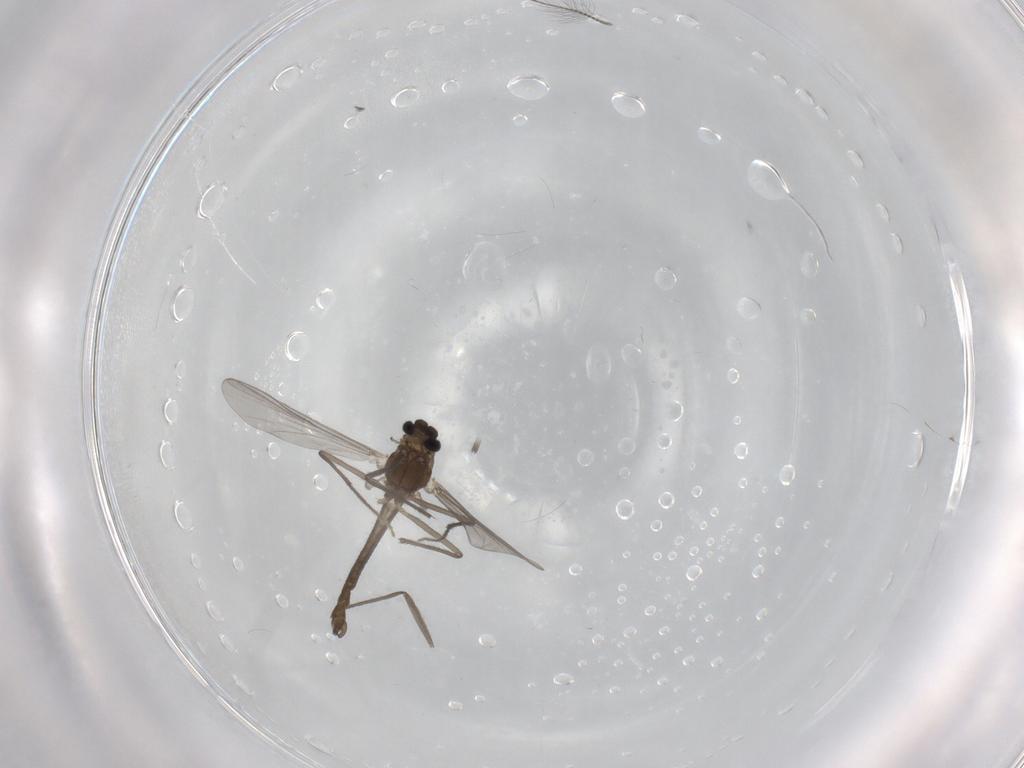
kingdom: Animalia
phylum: Arthropoda
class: Insecta
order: Diptera
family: Chironomidae
